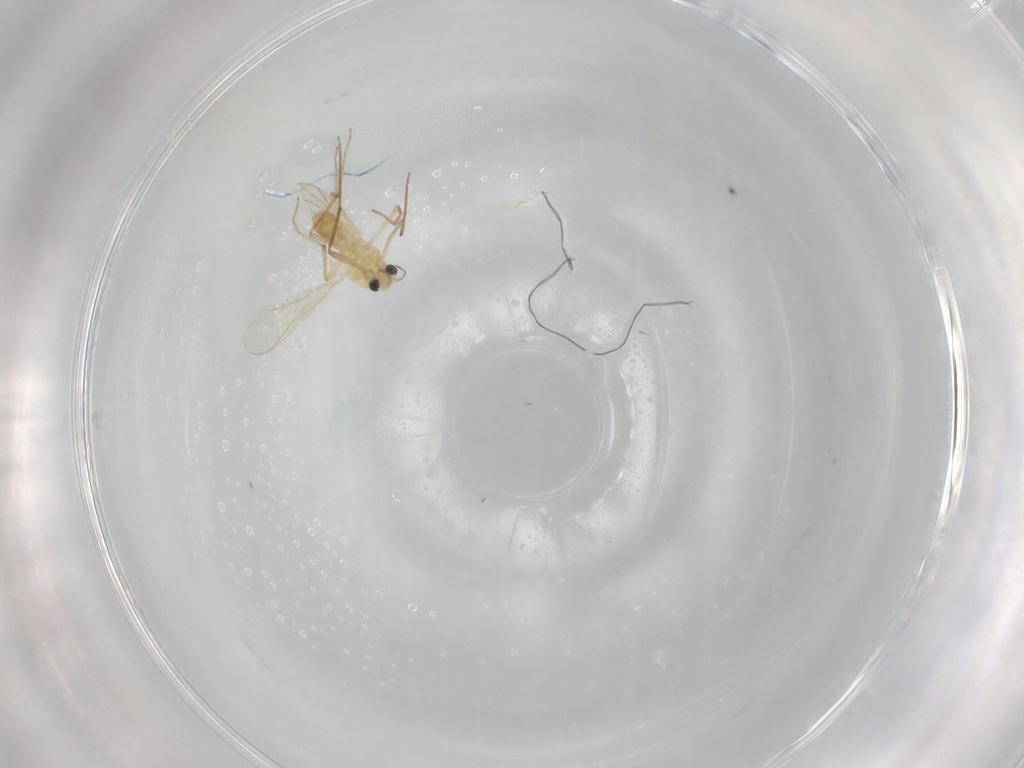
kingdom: Animalia
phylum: Arthropoda
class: Insecta
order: Diptera
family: Chironomidae
